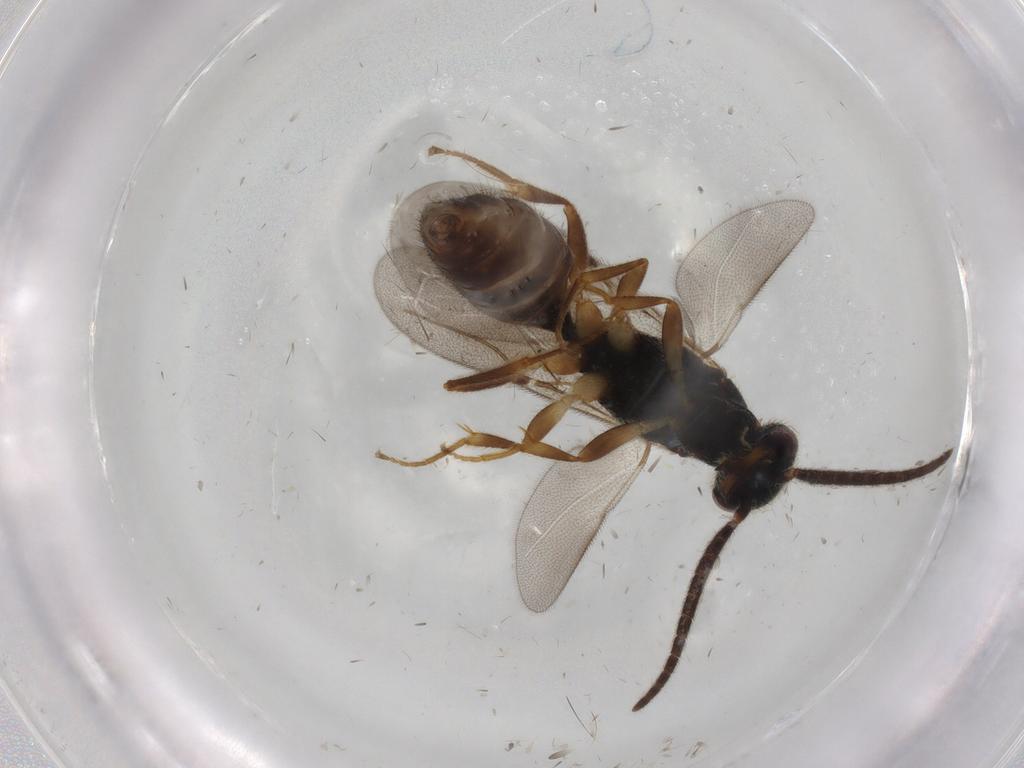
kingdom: Animalia
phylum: Arthropoda
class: Insecta
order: Hymenoptera
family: Bethylidae
